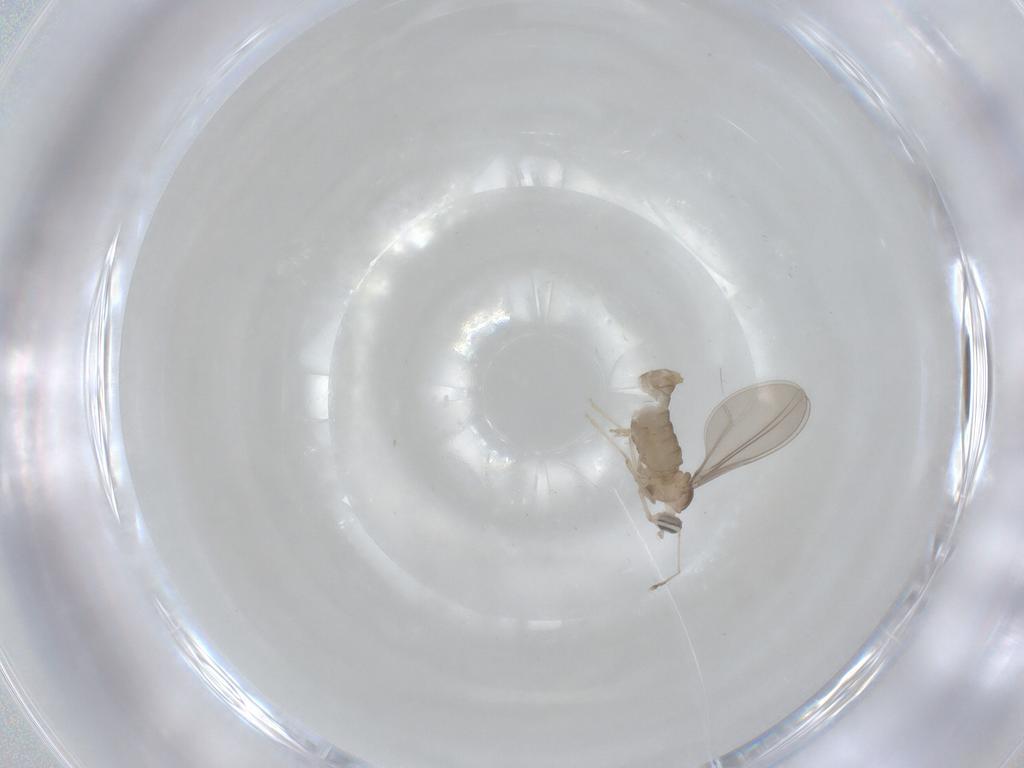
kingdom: Animalia
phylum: Arthropoda
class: Insecta
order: Diptera
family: Cecidomyiidae
